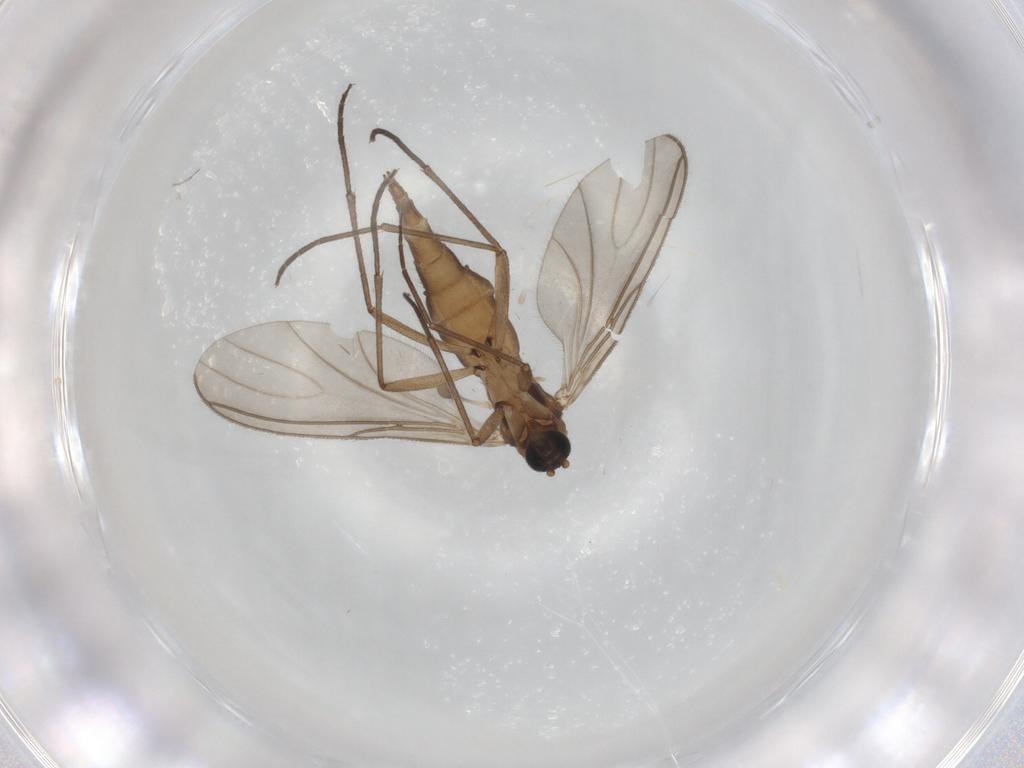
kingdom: Animalia
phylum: Arthropoda
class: Insecta
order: Diptera
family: Sciaridae
